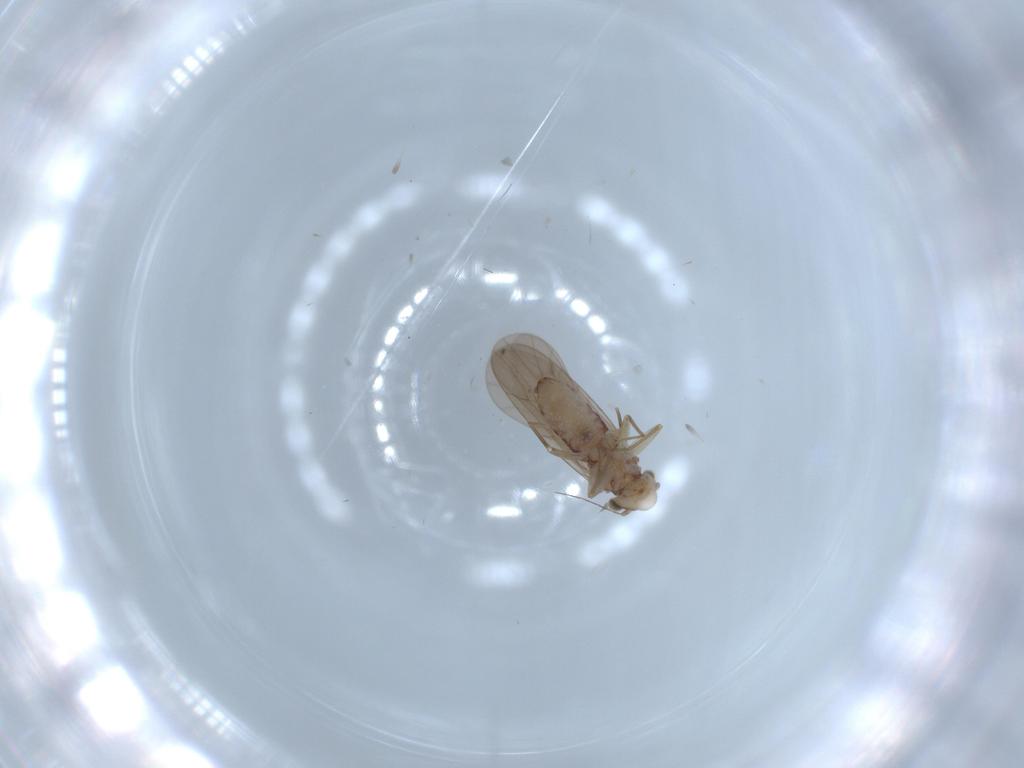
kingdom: Animalia
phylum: Arthropoda
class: Insecta
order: Psocodea
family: Lepidopsocidae
